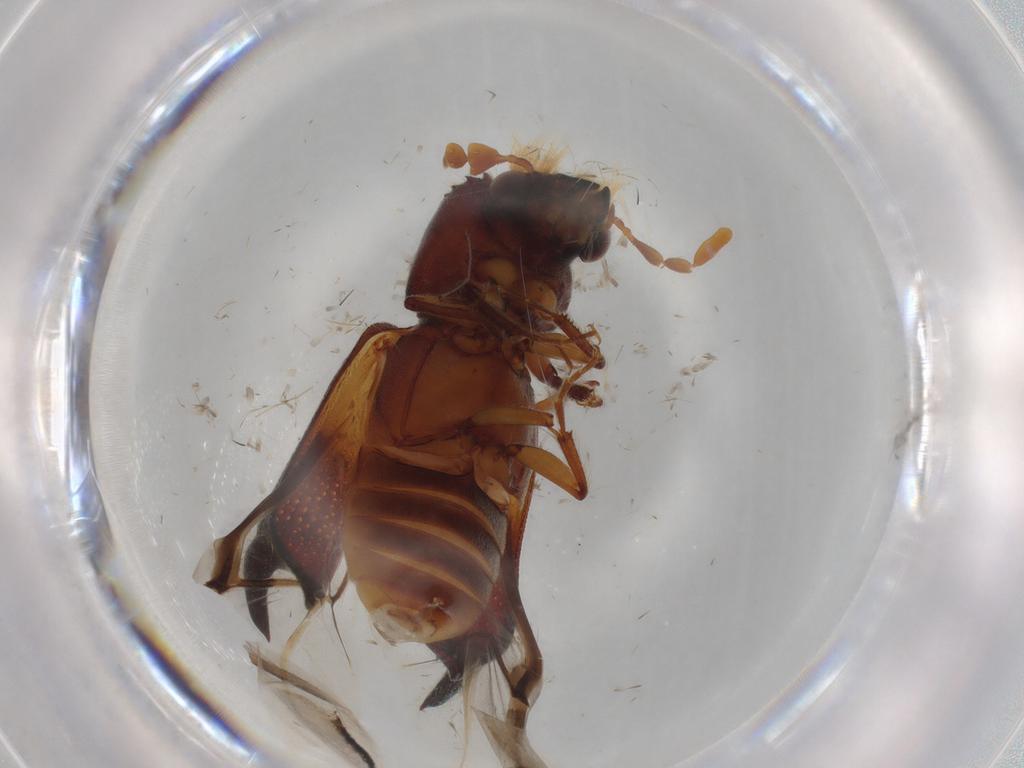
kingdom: Animalia
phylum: Arthropoda
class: Insecta
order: Coleoptera
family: Bostrichidae
